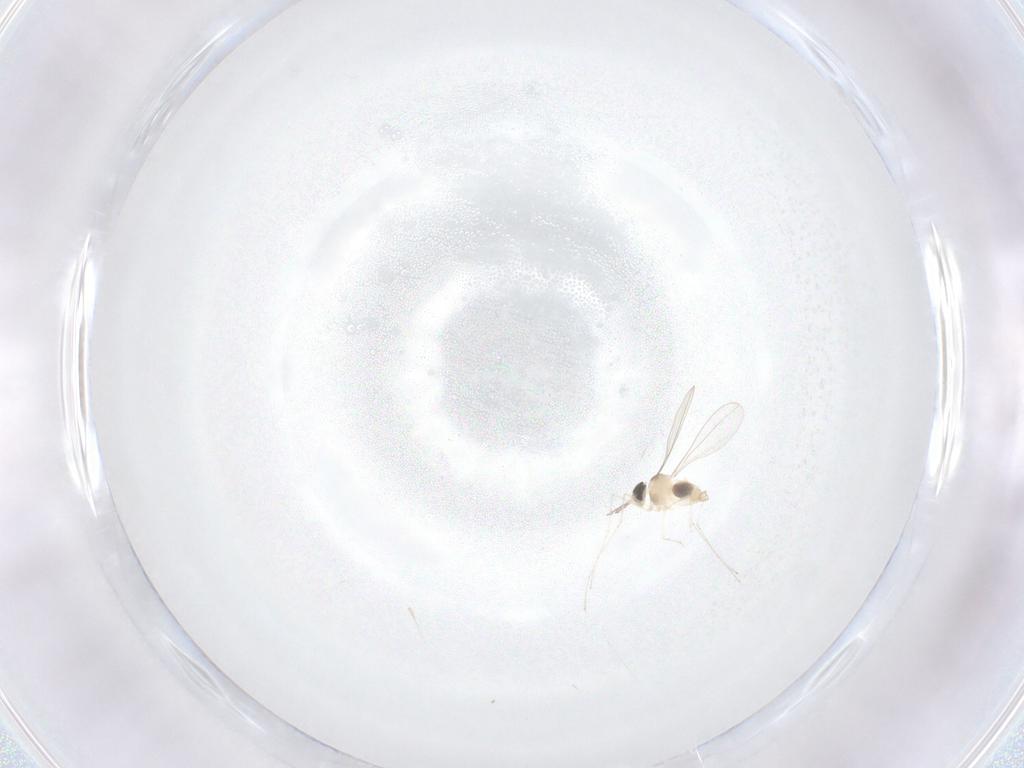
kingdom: Animalia
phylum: Arthropoda
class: Insecta
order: Diptera
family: Cecidomyiidae
